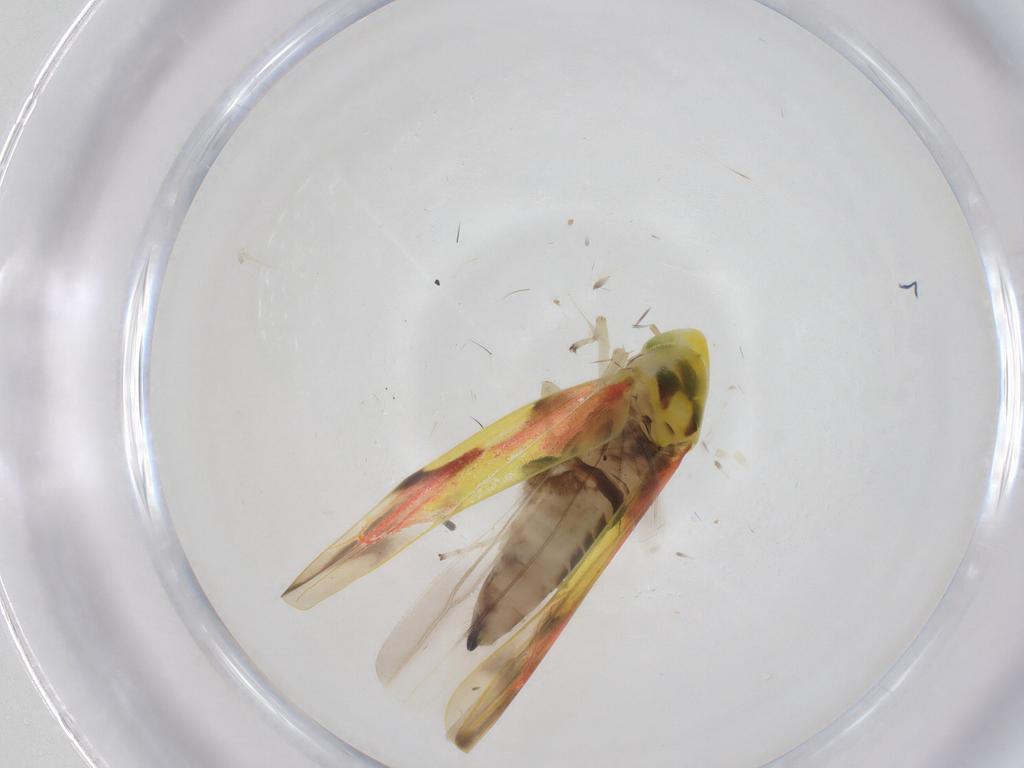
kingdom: Animalia
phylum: Arthropoda
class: Insecta
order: Hemiptera
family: Cicadellidae
